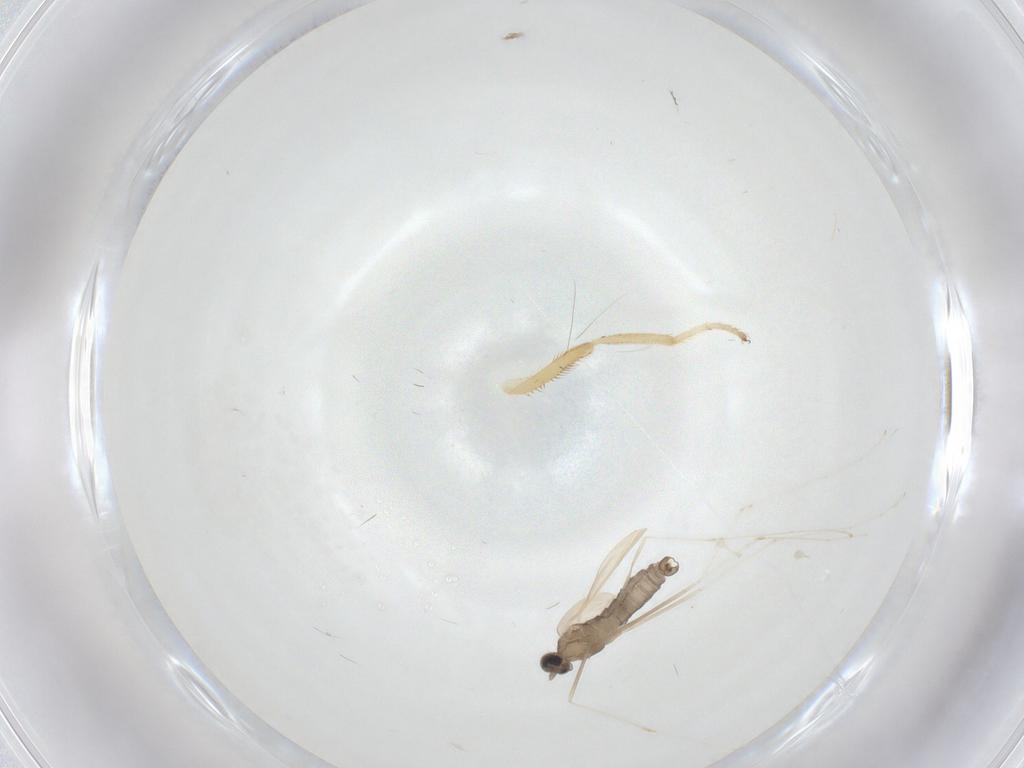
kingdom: Animalia
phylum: Arthropoda
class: Insecta
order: Diptera
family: Clusiidae
